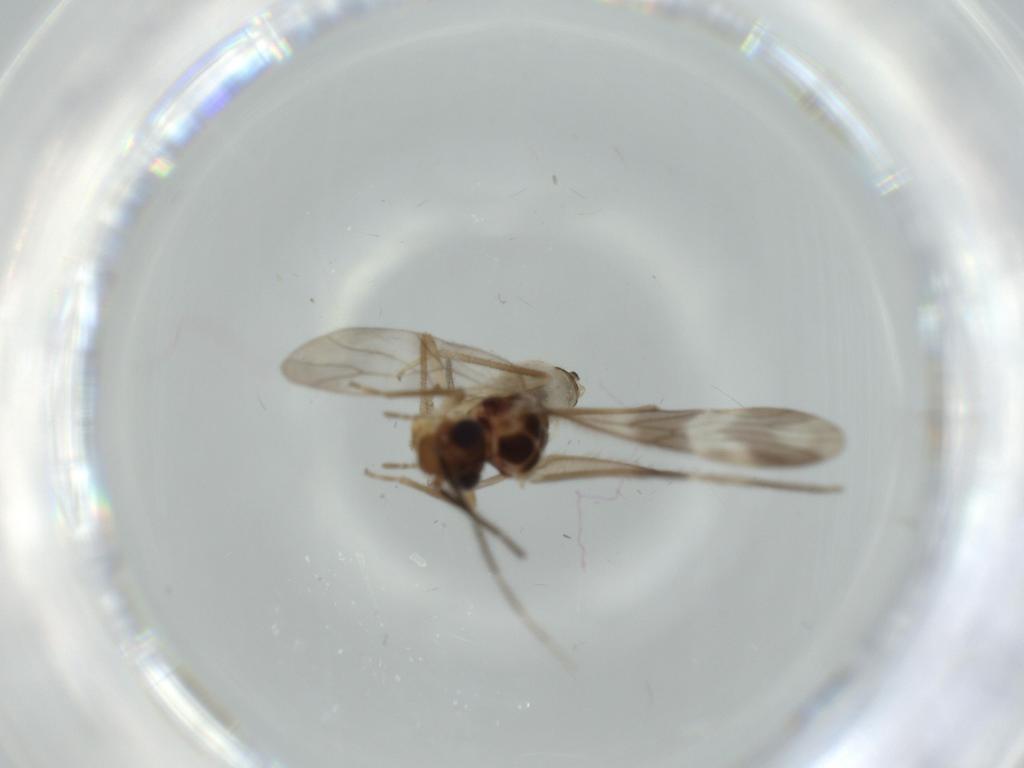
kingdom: Animalia
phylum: Arthropoda
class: Insecta
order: Psocodea
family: Amphipsocidae
